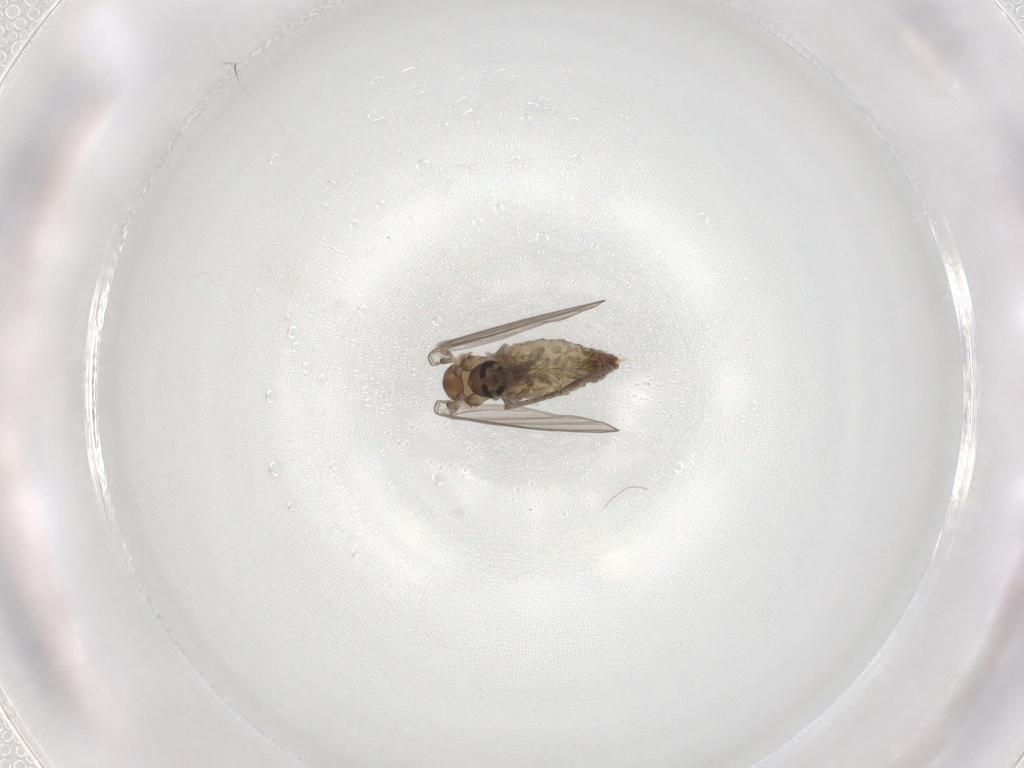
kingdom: Animalia
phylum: Arthropoda
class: Insecta
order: Diptera
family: Psychodidae
